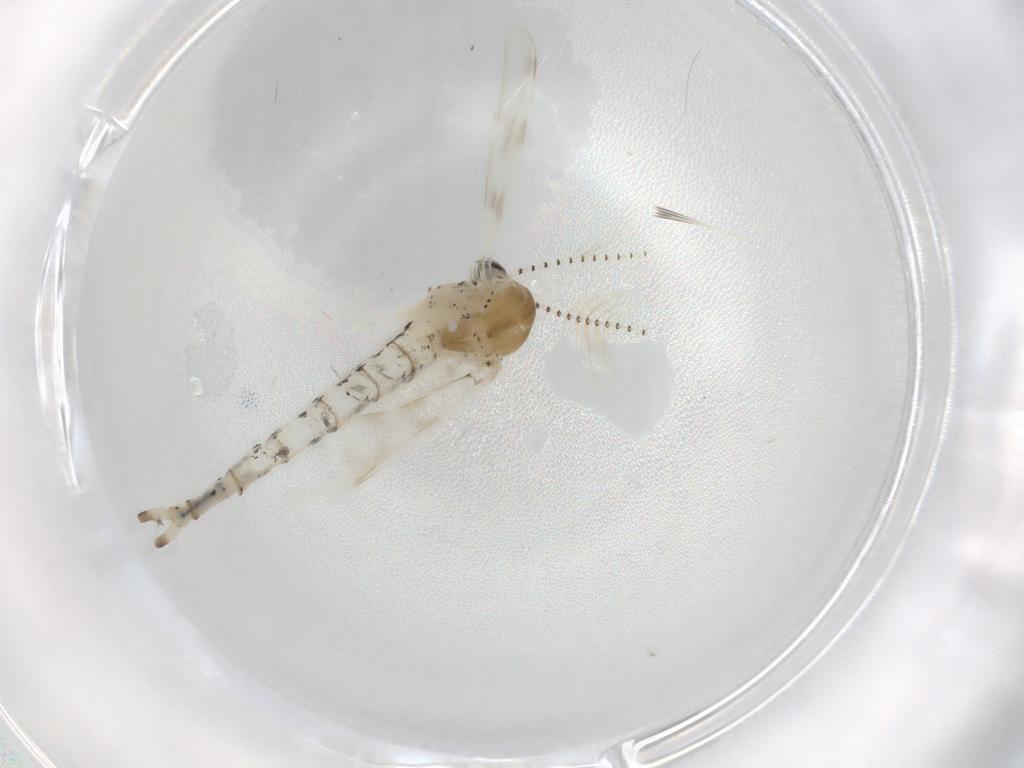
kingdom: Animalia
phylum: Arthropoda
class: Insecta
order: Diptera
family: Chironomidae
